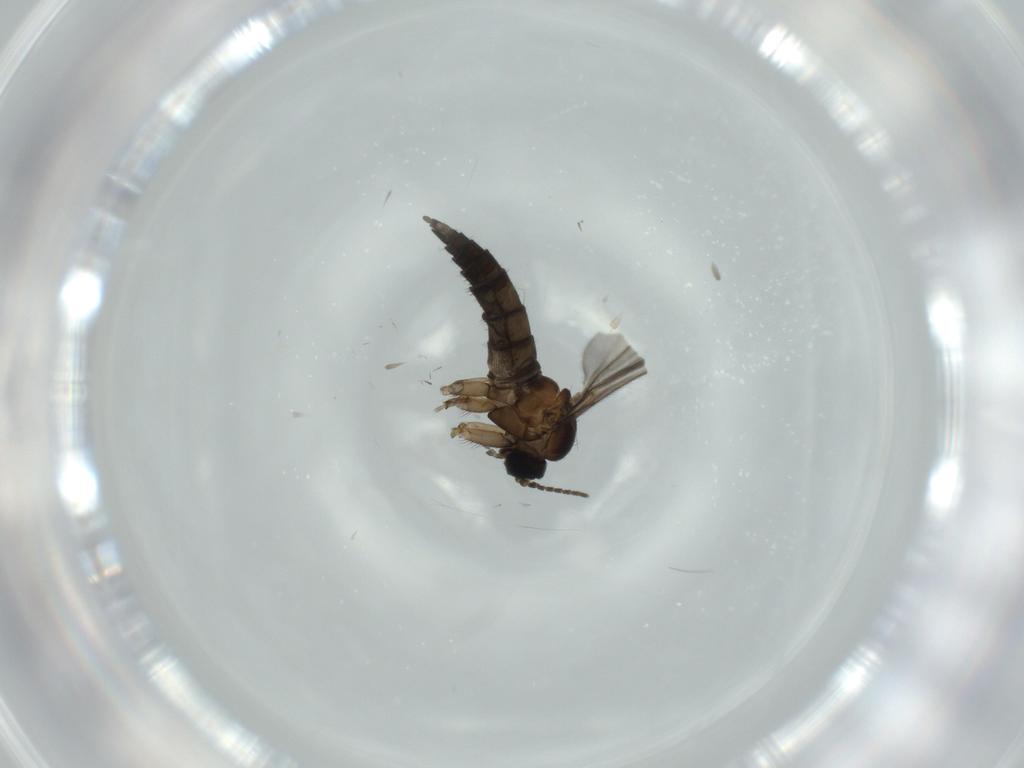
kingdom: Animalia
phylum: Arthropoda
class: Insecta
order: Diptera
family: Sciaridae
